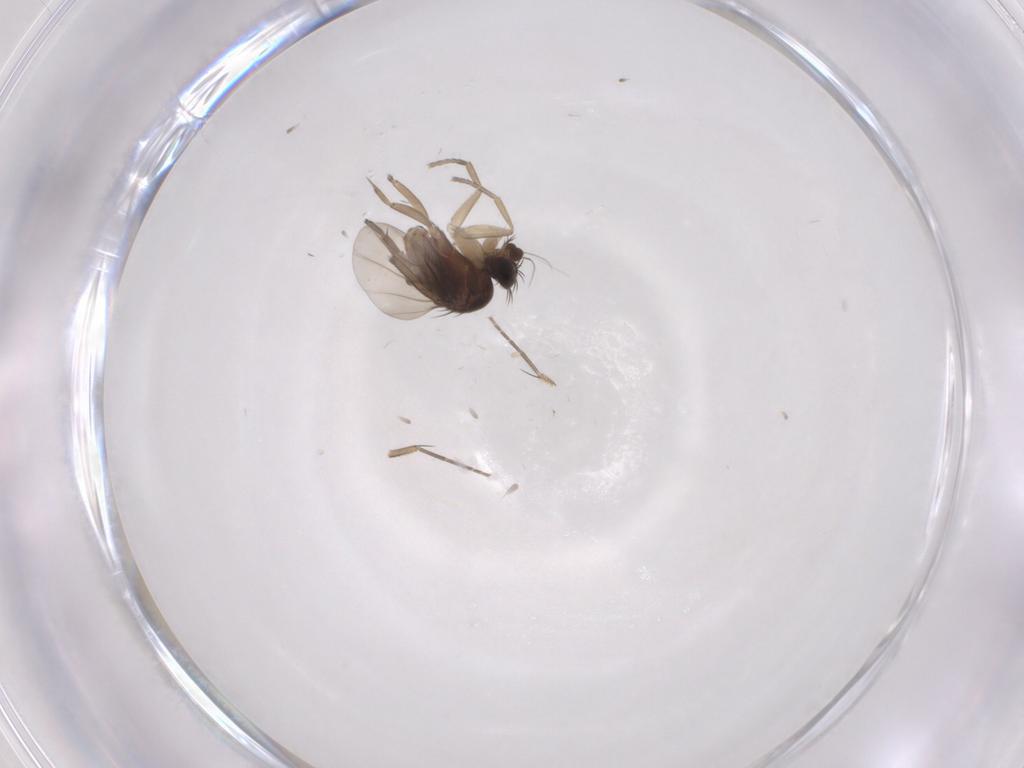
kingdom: Animalia
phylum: Arthropoda
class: Insecta
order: Diptera
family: Phoridae
